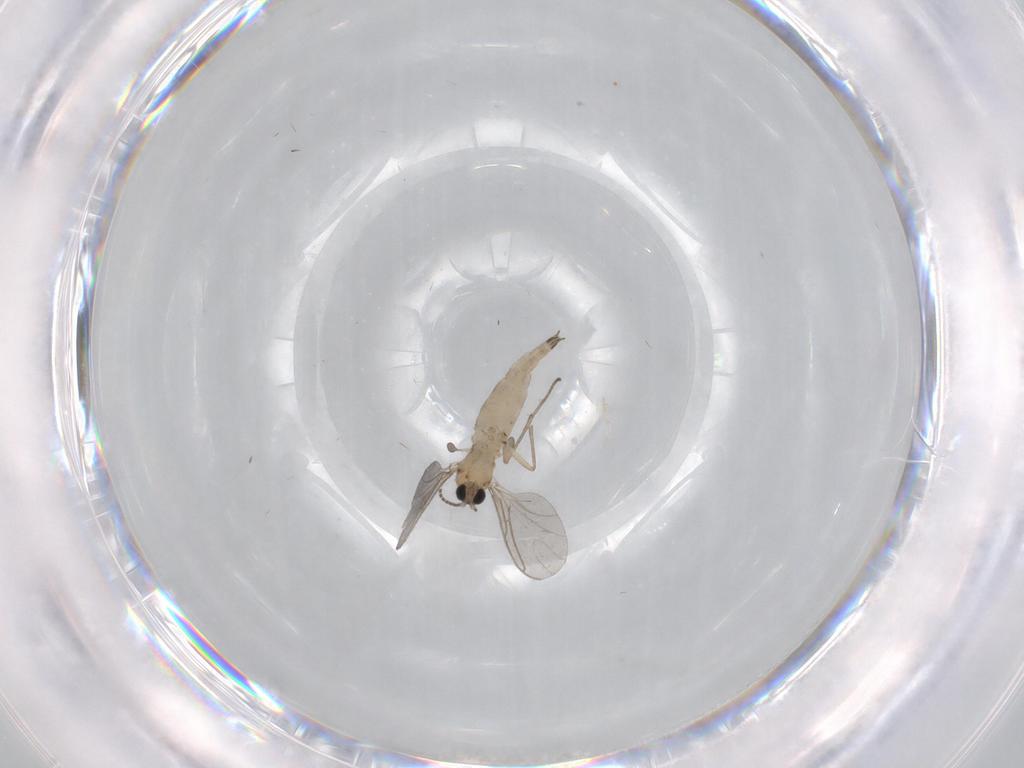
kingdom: Animalia
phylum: Arthropoda
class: Insecta
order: Diptera
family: Sciaridae
